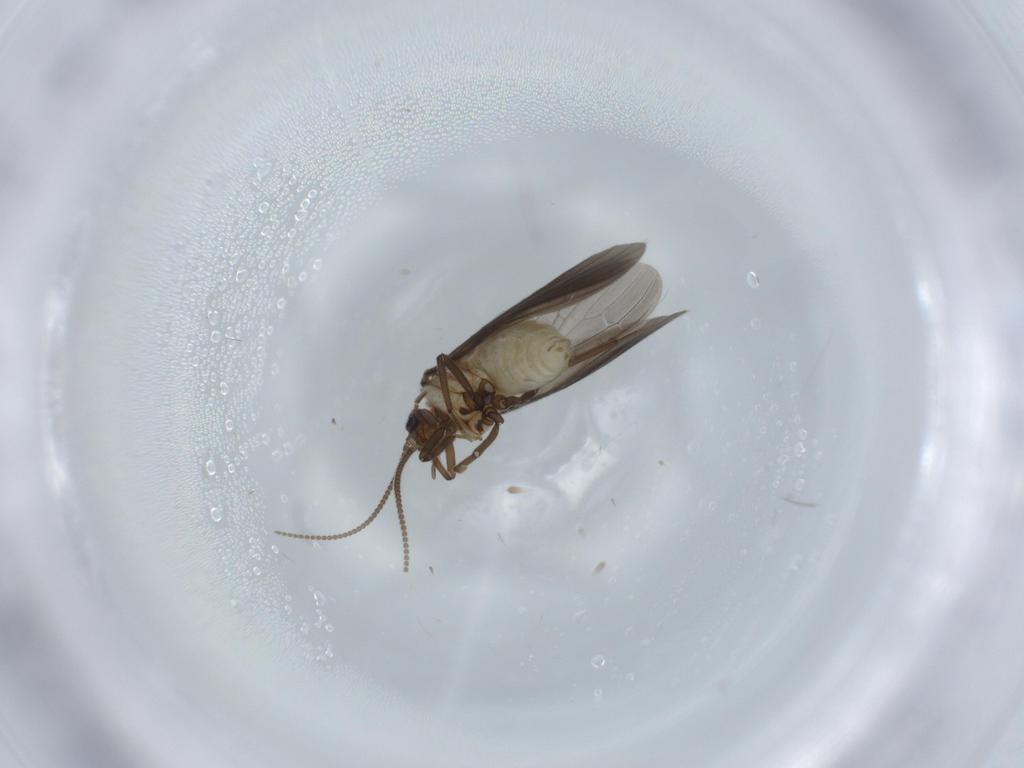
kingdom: Animalia
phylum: Arthropoda
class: Insecta
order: Neuroptera
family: Coniopterygidae
